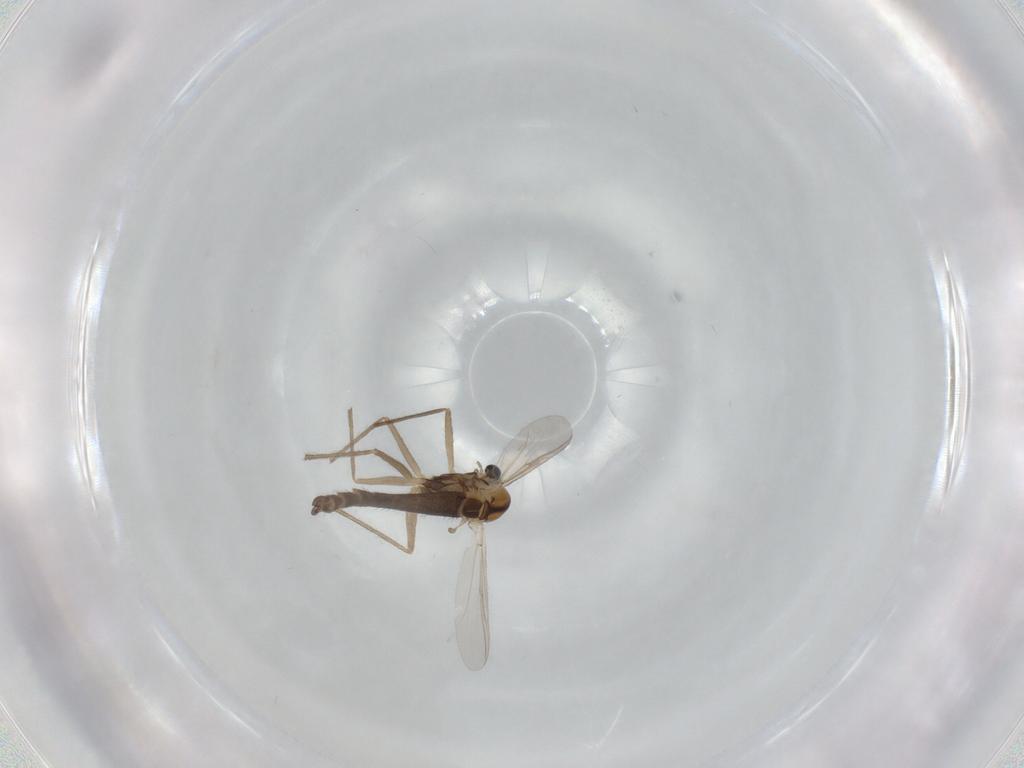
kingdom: Animalia
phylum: Arthropoda
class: Insecta
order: Diptera
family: Chironomidae
